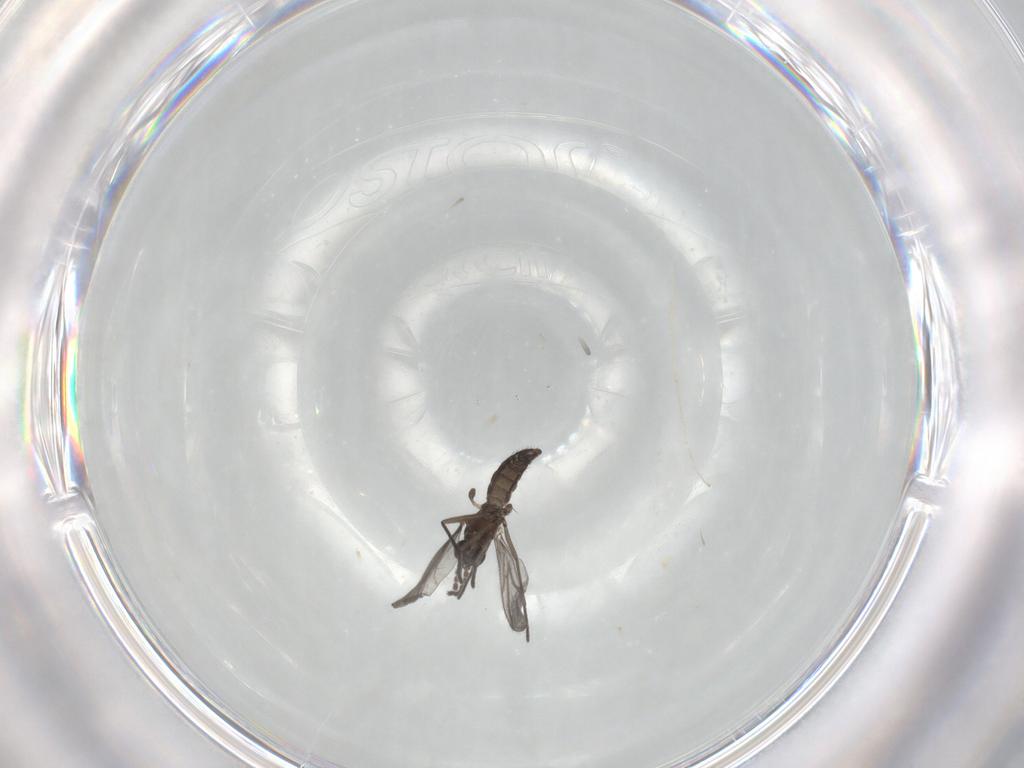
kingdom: Animalia
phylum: Arthropoda
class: Insecta
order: Diptera
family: Cecidomyiidae
